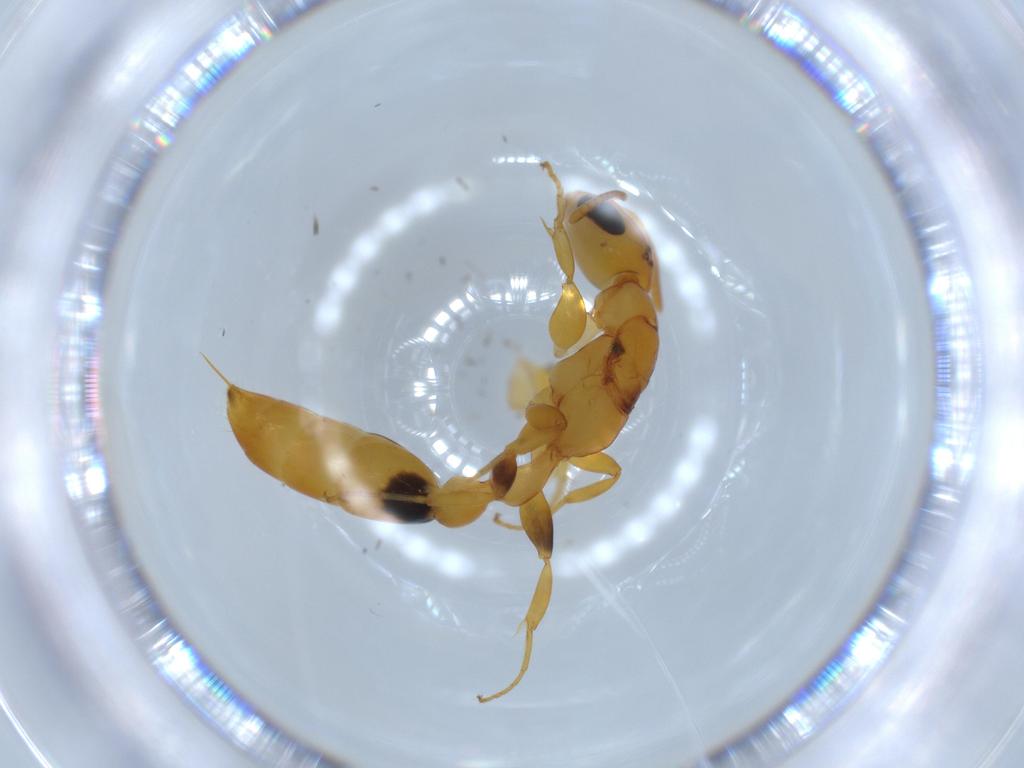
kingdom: Animalia
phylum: Arthropoda
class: Insecta
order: Hymenoptera
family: Formicidae
